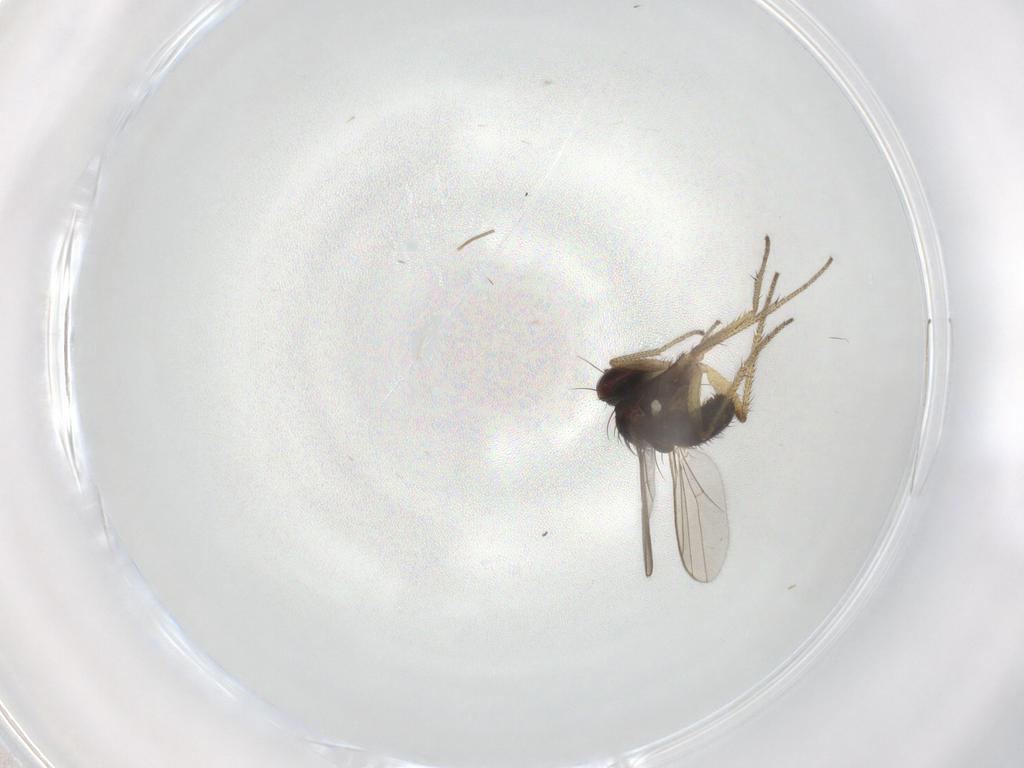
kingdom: Animalia
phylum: Arthropoda
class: Insecta
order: Diptera
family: Dolichopodidae
